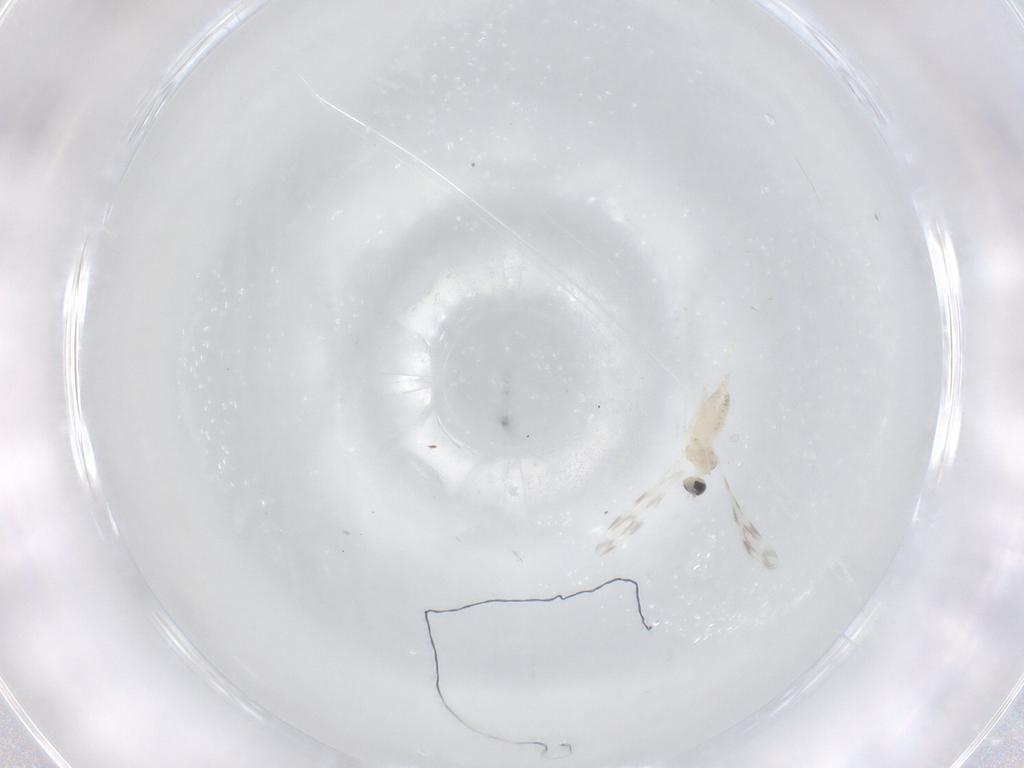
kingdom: Animalia
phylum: Arthropoda
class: Insecta
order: Diptera
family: Cecidomyiidae
